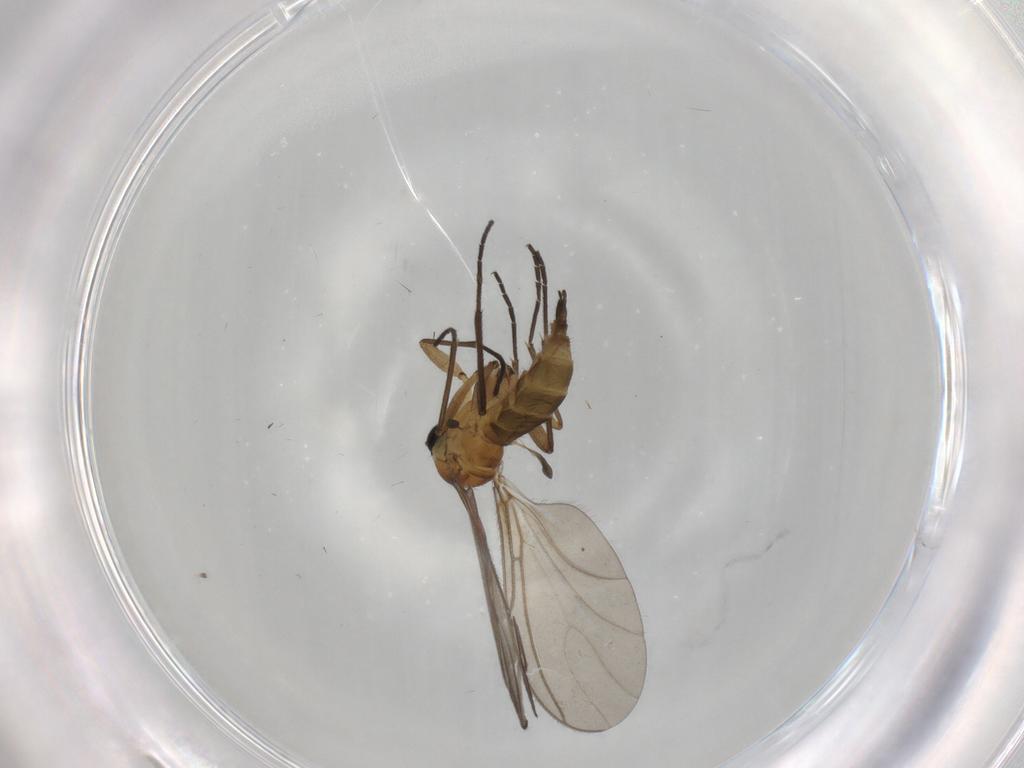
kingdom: Animalia
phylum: Arthropoda
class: Insecta
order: Diptera
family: Sciaridae
